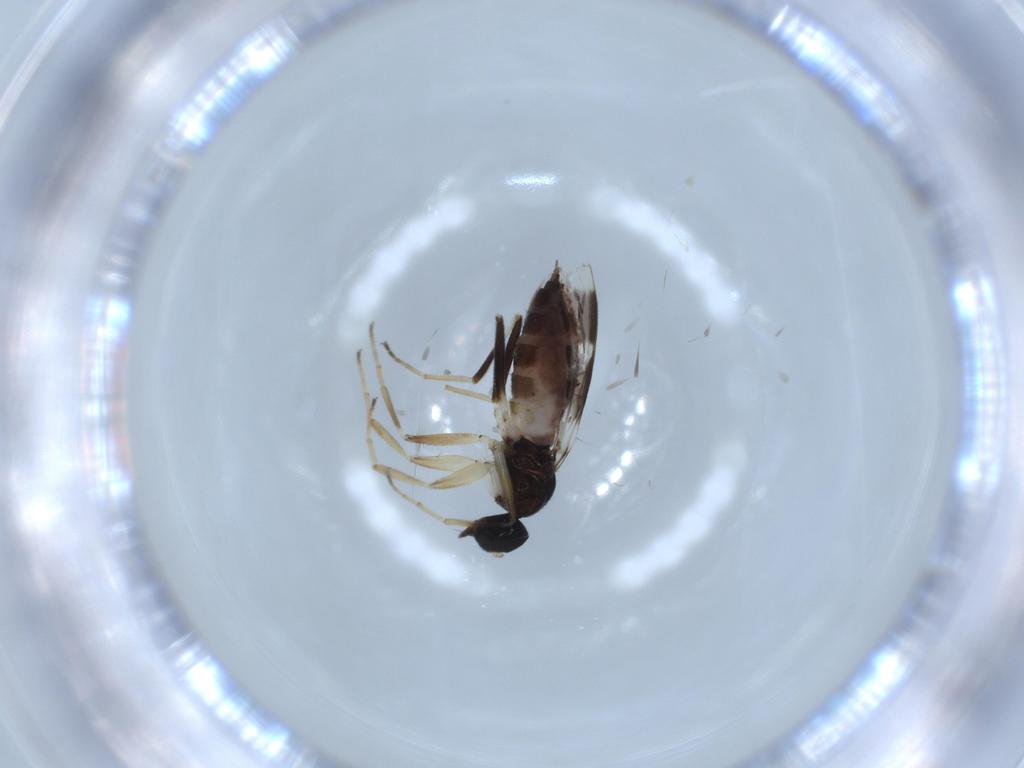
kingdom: Animalia
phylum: Arthropoda
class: Insecta
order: Diptera
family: Hybotidae
